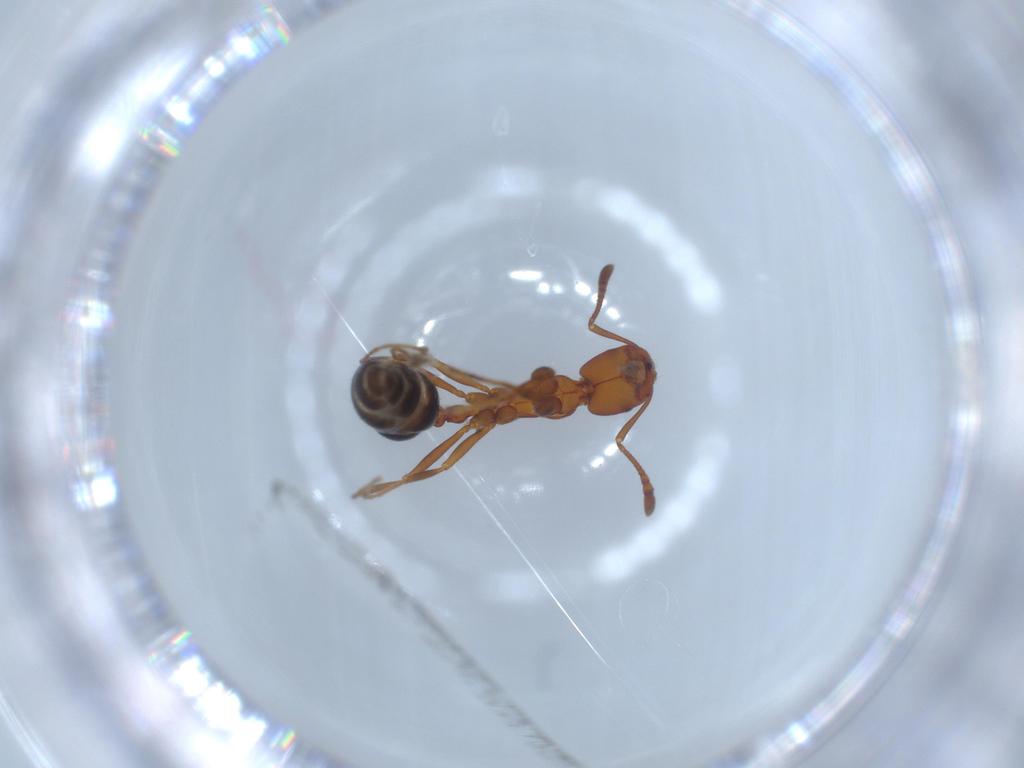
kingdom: Animalia
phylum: Arthropoda
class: Insecta
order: Hymenoptera
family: Formicidae
